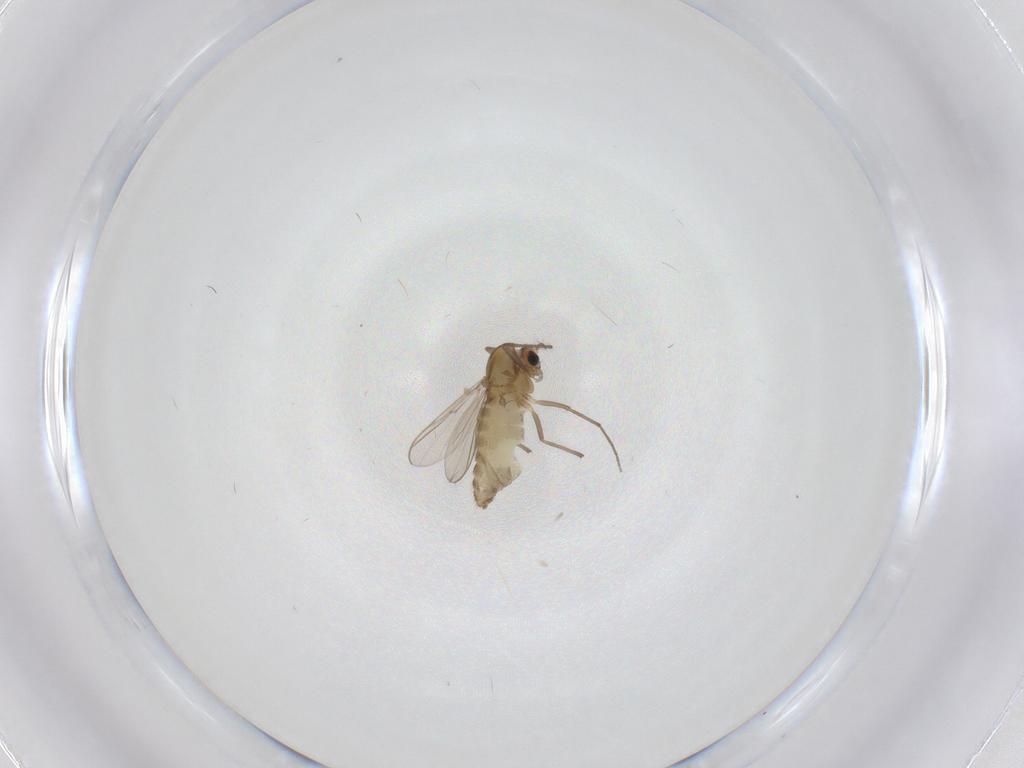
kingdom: Animalia
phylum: Arthropoda
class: Insecta
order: Diptera
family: Chironomidae
